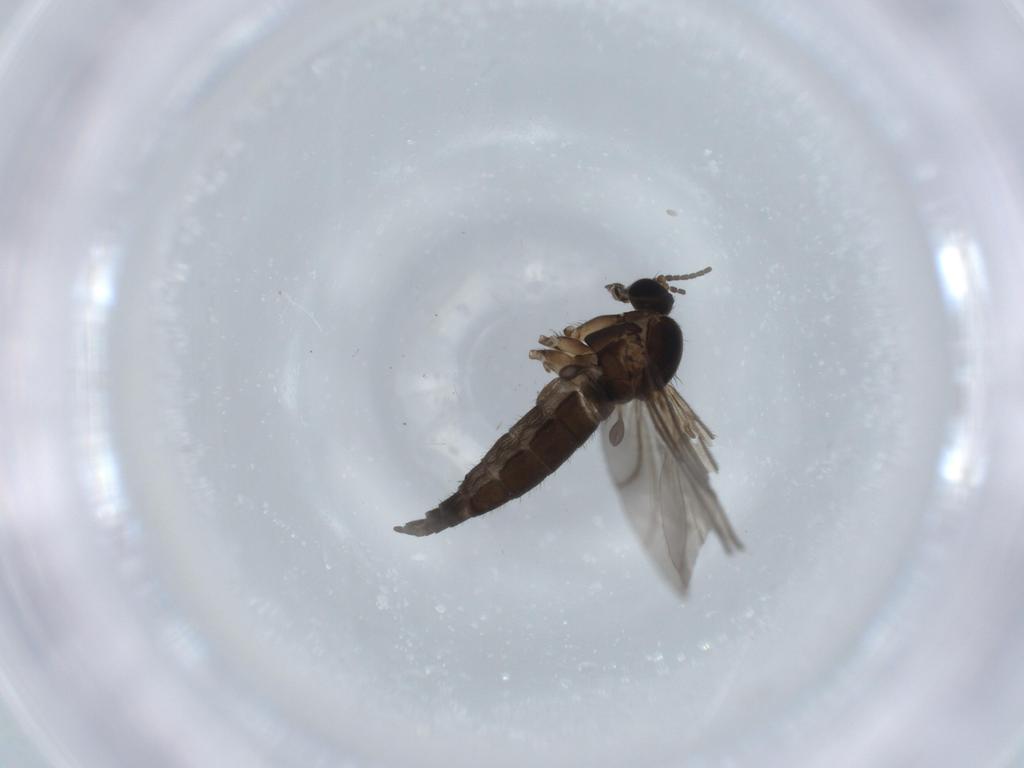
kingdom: Animalia
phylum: Arthropoda
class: Insecta
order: Diptera
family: Sciaridae
